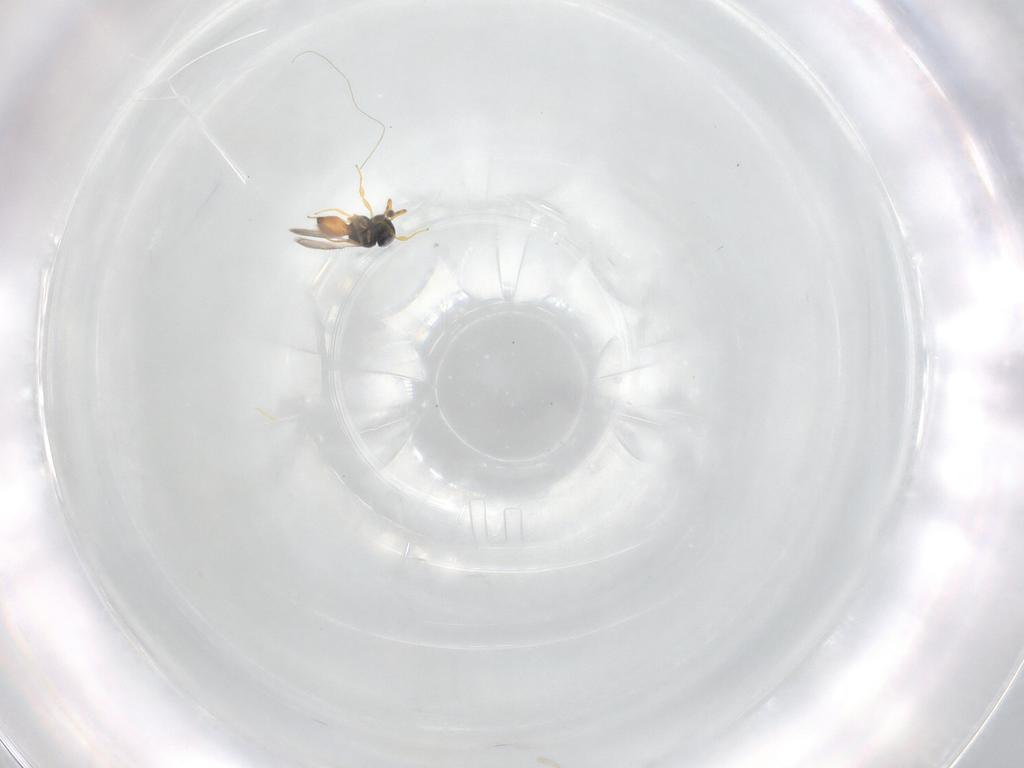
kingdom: Animalia
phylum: Arthropoda
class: Insecta
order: Hymenoptera
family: Scelionidae
